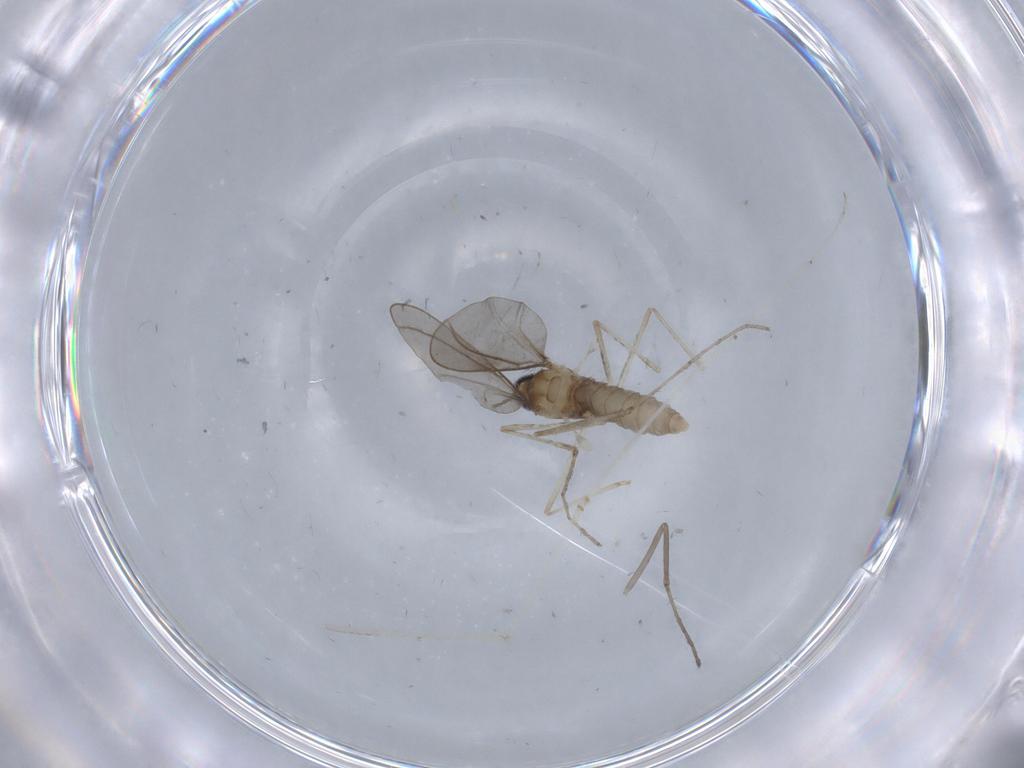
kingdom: Animalia
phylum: Arthropoda
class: Insecta
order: Diptera
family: Cecidomyiidae
